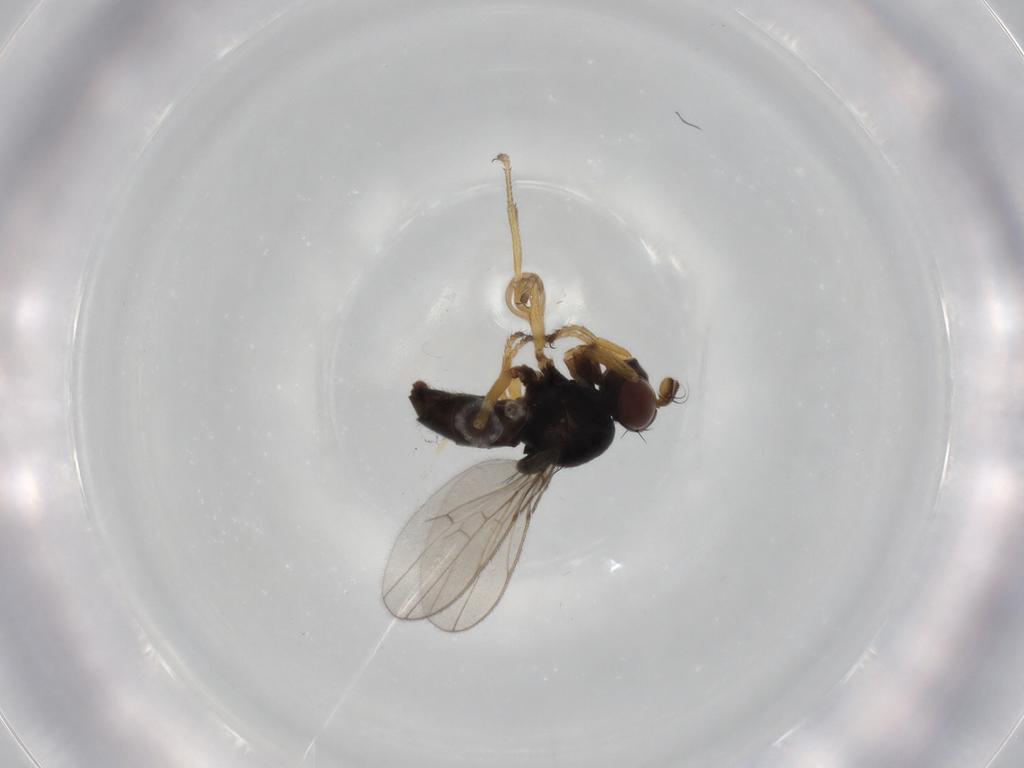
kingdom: Animalia
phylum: Arthropoda
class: Insecta
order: Diptera
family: Ephydridae
